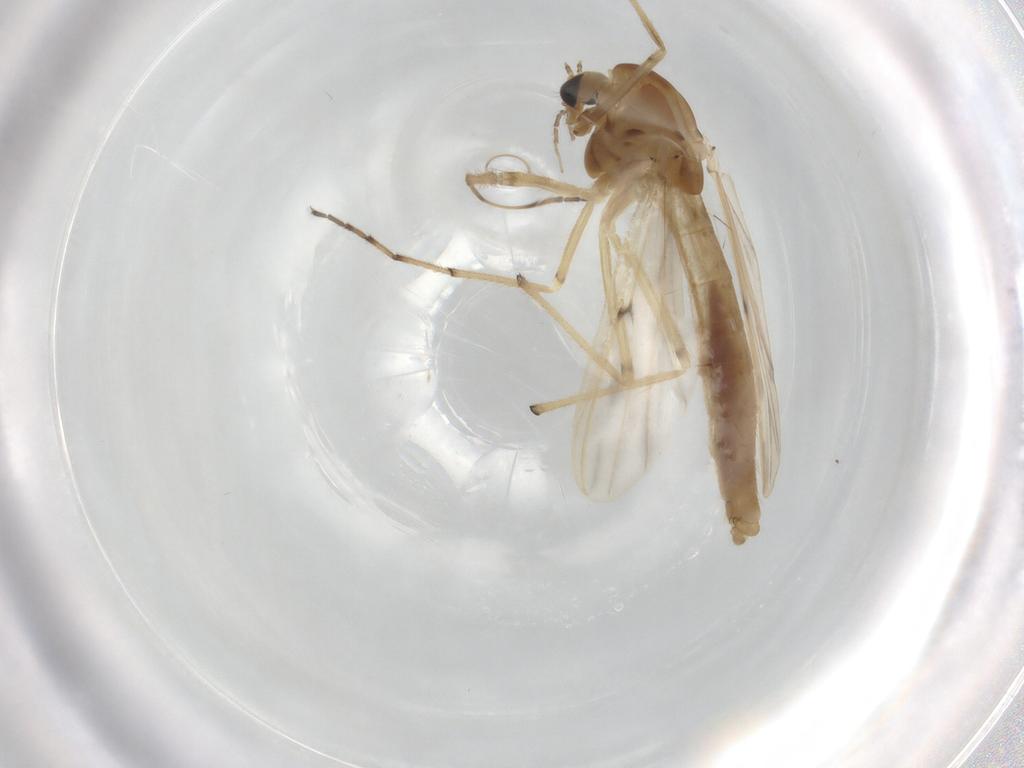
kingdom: Animalia
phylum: Arthropoda
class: Insecta
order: Diptera
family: Chironomidae
